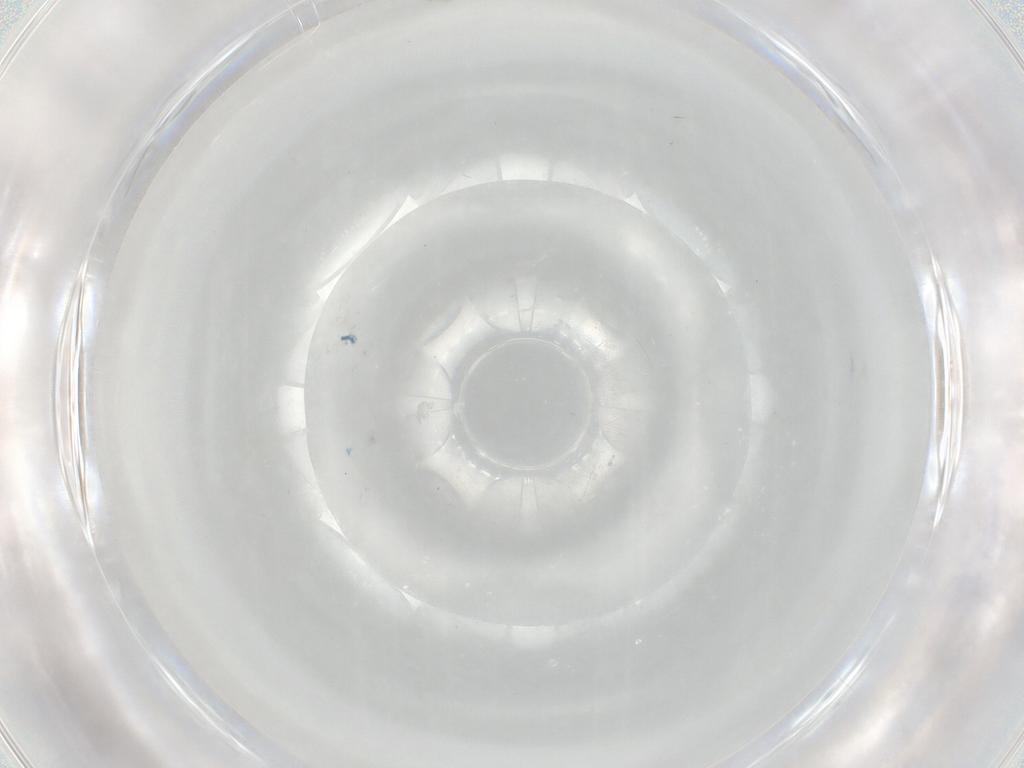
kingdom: Animalia
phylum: Arthropoda
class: Insecta
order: Diptera
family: Phoridae
